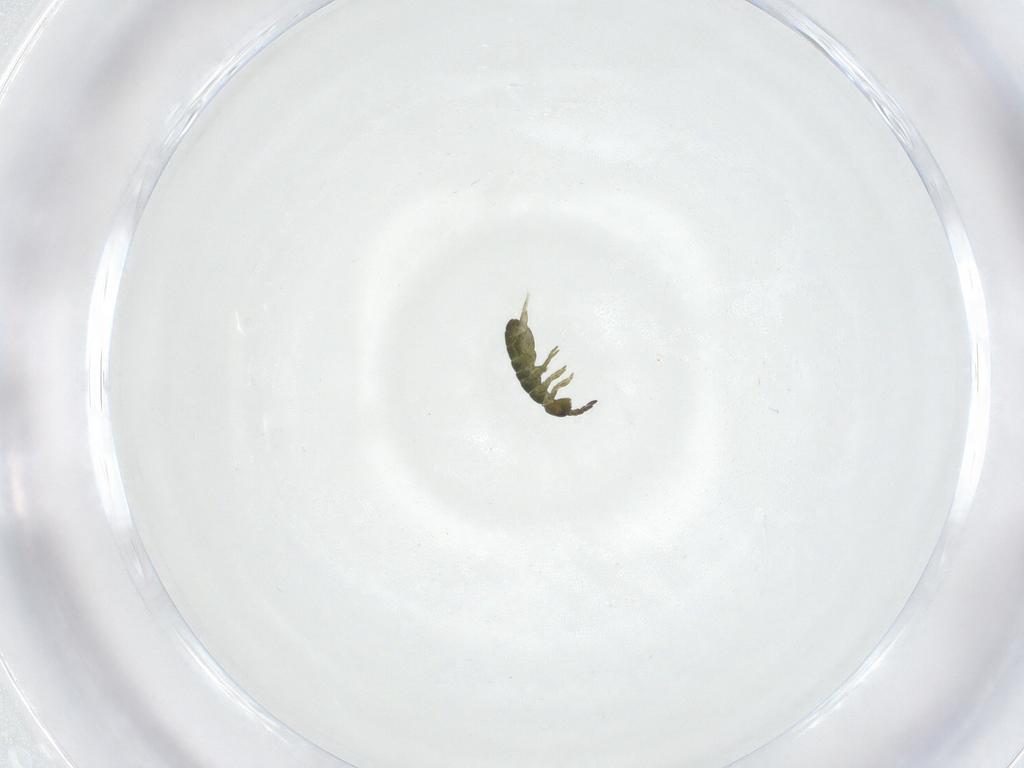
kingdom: Animalia
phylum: Arthropoda
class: Collembola
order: Entomobryomorpha
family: Isotomidae
